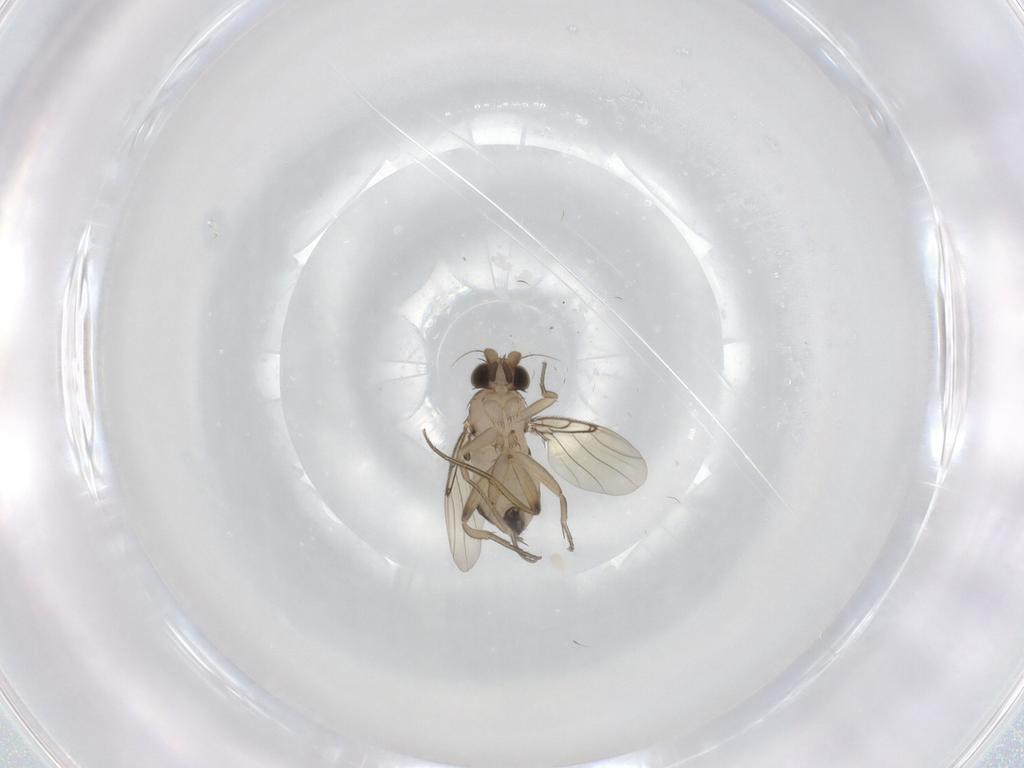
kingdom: Animalia
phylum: Arthropoda
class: Insecta
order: Diptera
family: Phoridae
